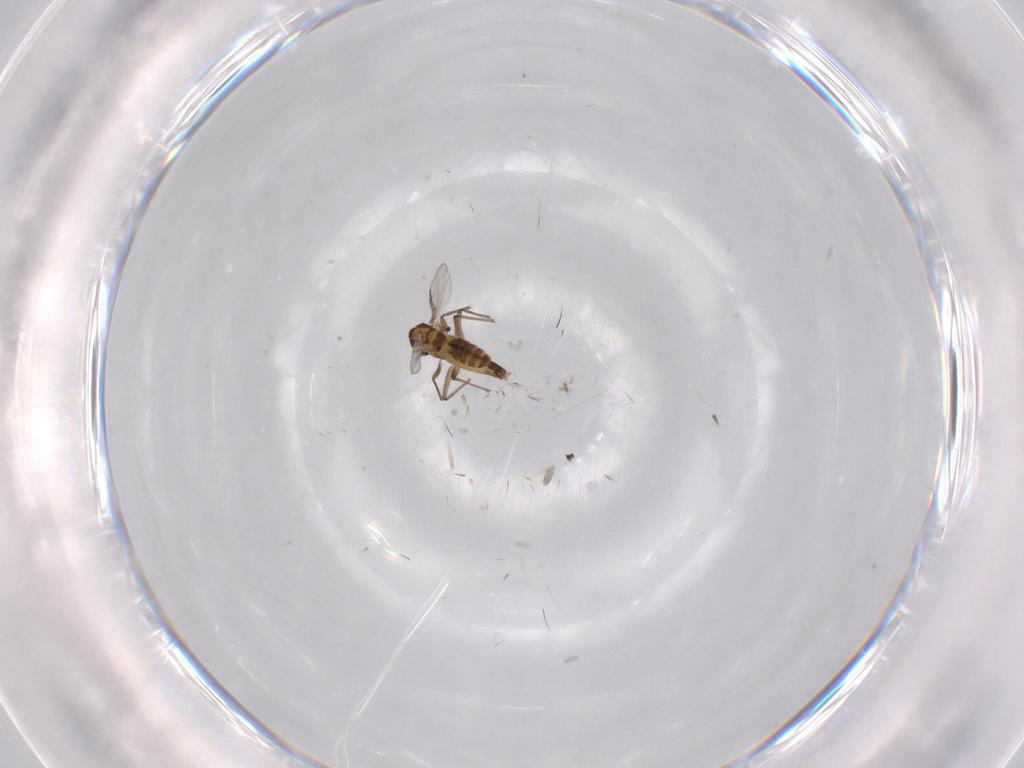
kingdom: Animalia
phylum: Arthropoda
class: Insecta
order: Diptera
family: Chironomidae
